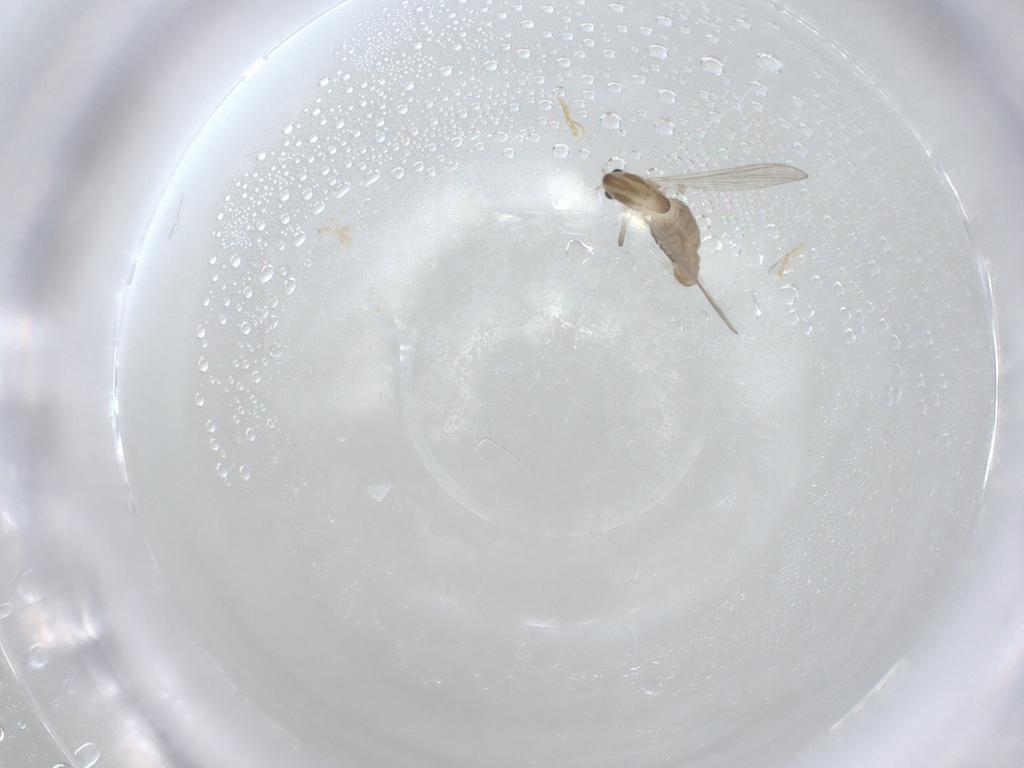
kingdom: Animalia
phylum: Arthropoda
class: Insecta
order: Diptera
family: Chironomidae
